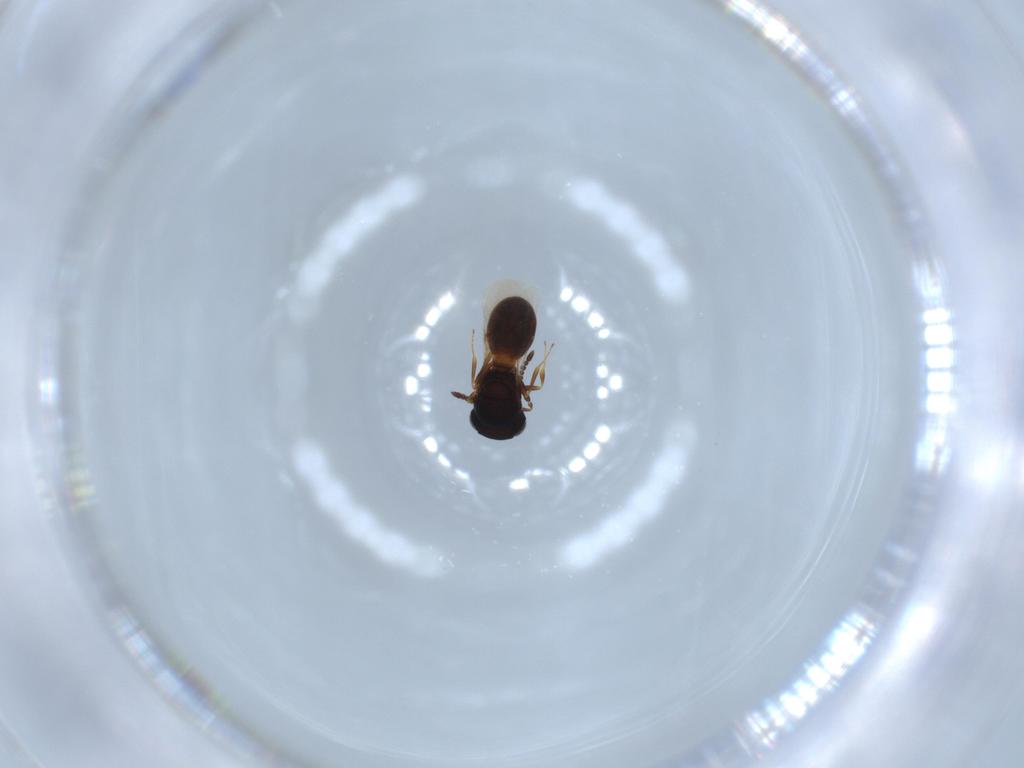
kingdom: Animalia
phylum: Arthropoda
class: Insecta
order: Hymenoptera
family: Scelionidae
